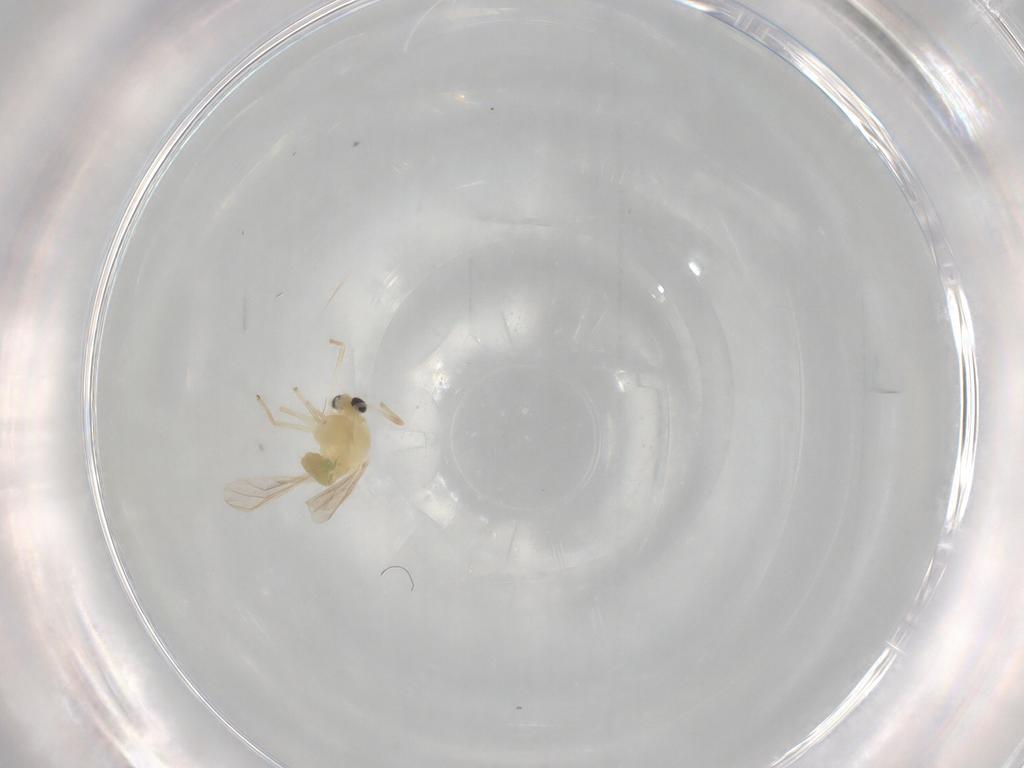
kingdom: Animalia
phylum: Arthropoda
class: Insecta
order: Diptera
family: Chironomidae
